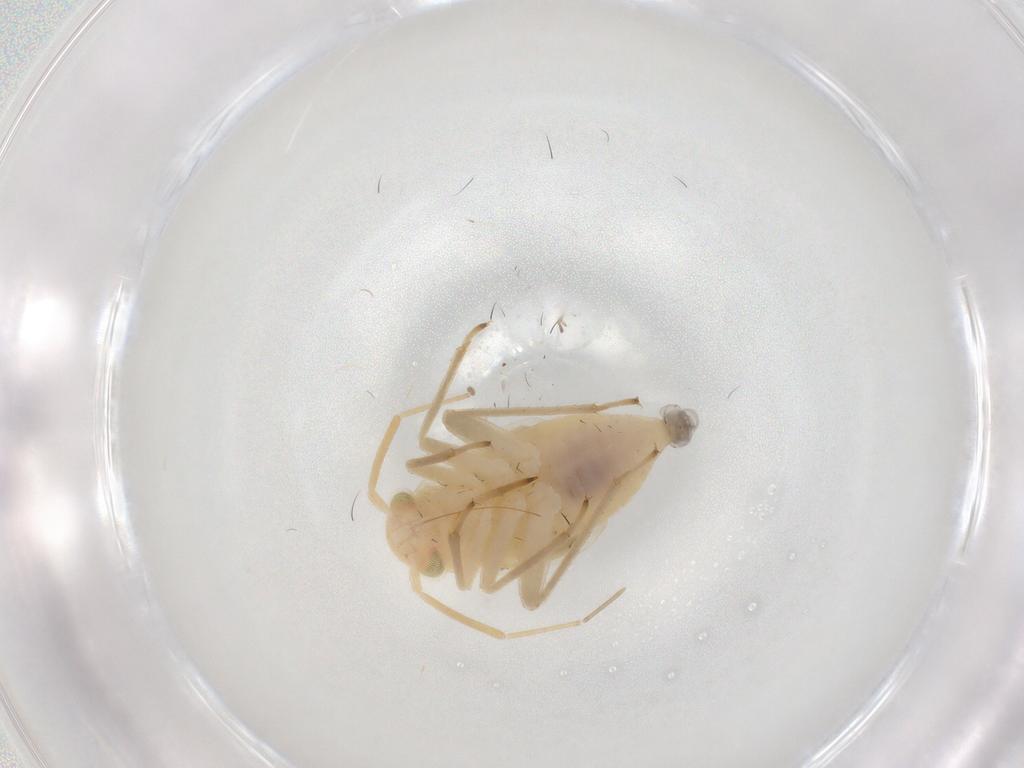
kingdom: Animalia
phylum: Arthropoda
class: Insecta
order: Hemiptera
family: Miridae
